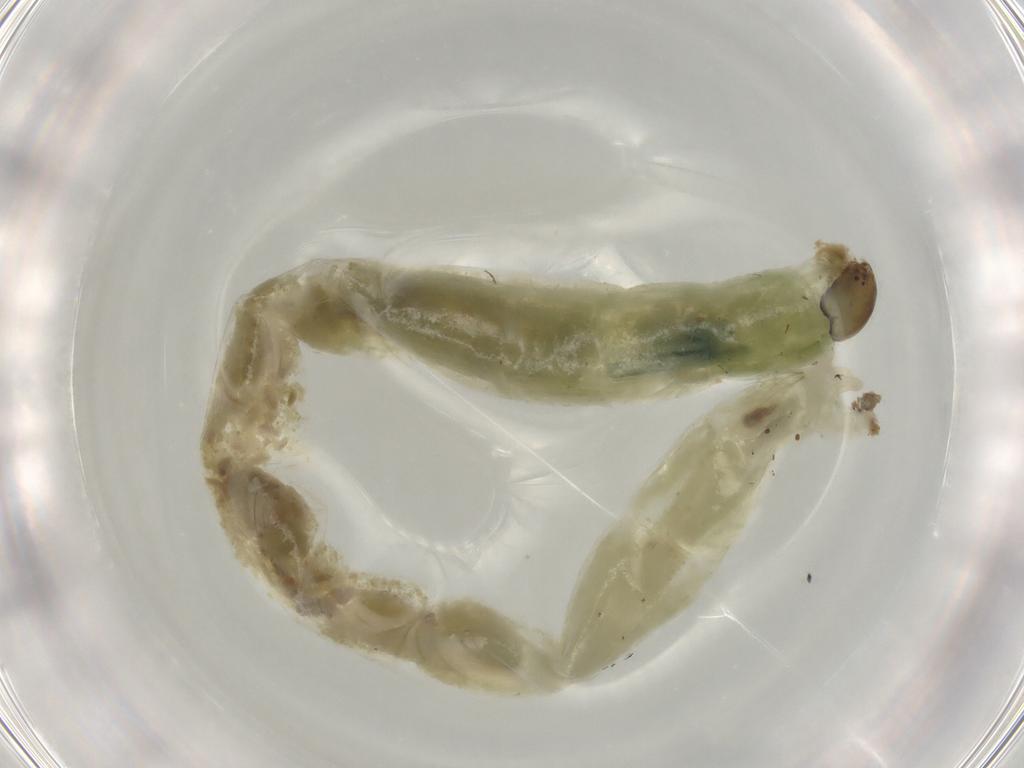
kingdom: Animalia
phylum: Arthropoda
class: Insecta
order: Diptera
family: Chironomidae
